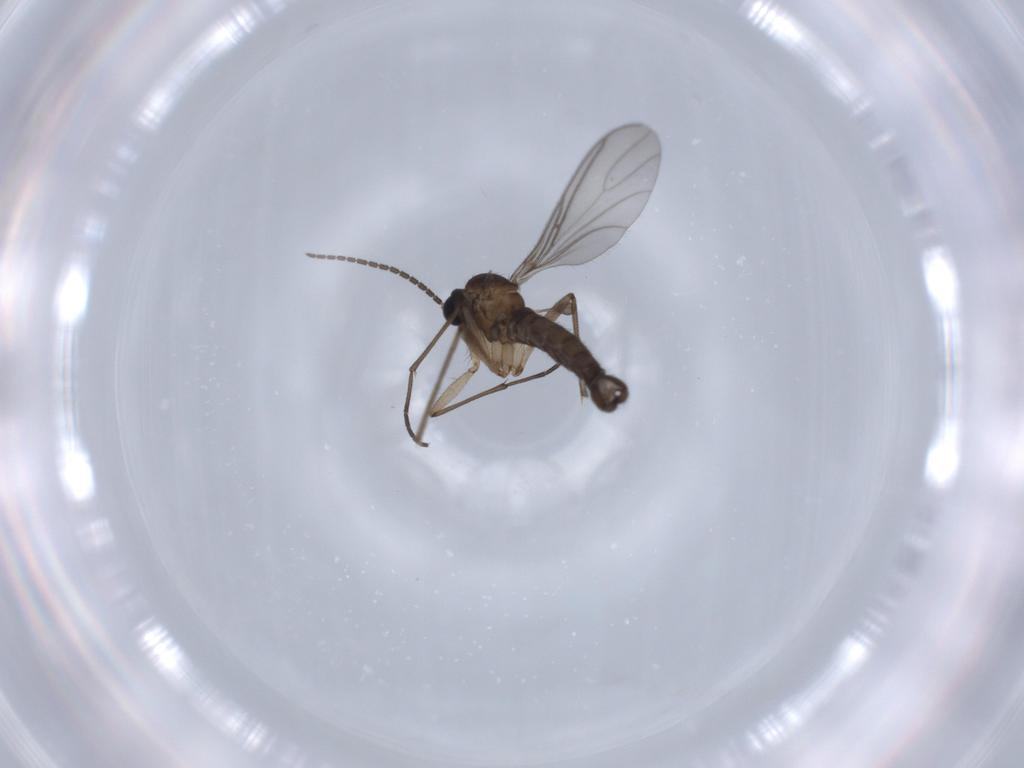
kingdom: Animalia
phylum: Arthropoda
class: Insecta
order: Diptera
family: Sciaridae
